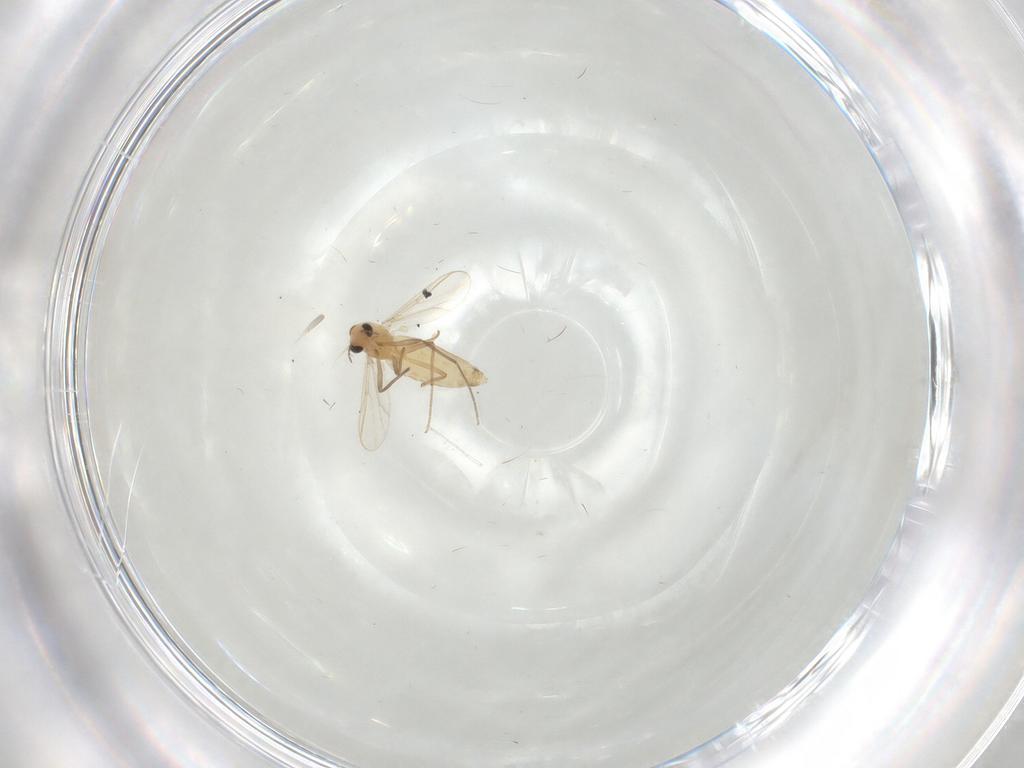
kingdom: Animalia
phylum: Arthropoda
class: Insecta
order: Diptera
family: Chironomidae
